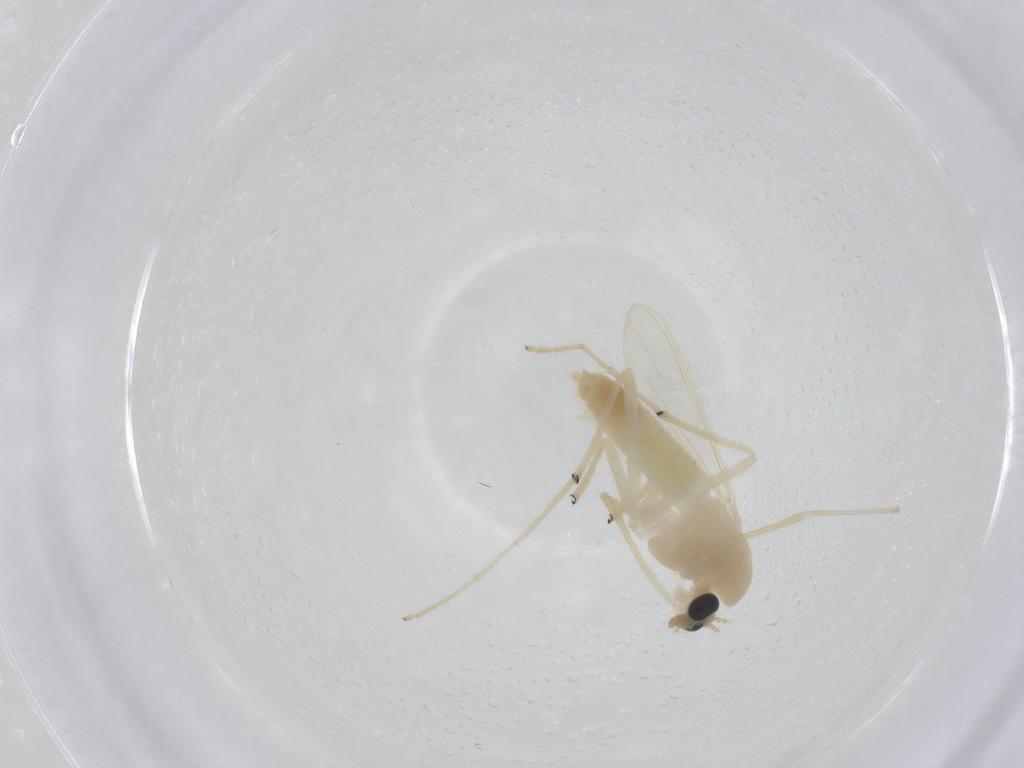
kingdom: Animalia
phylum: Arthropoda
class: Insecta
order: Diptera
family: Chironomidae
